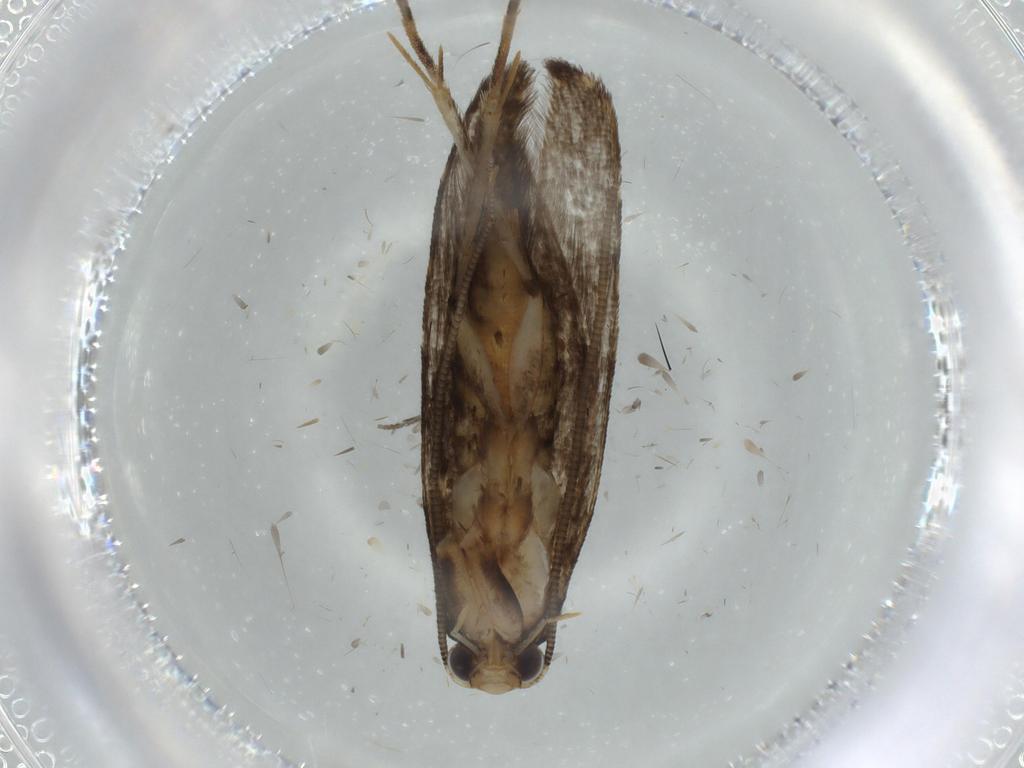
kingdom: Animalia
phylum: Arthropoda
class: Insecta
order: Lepidoptera
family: Tineidae
